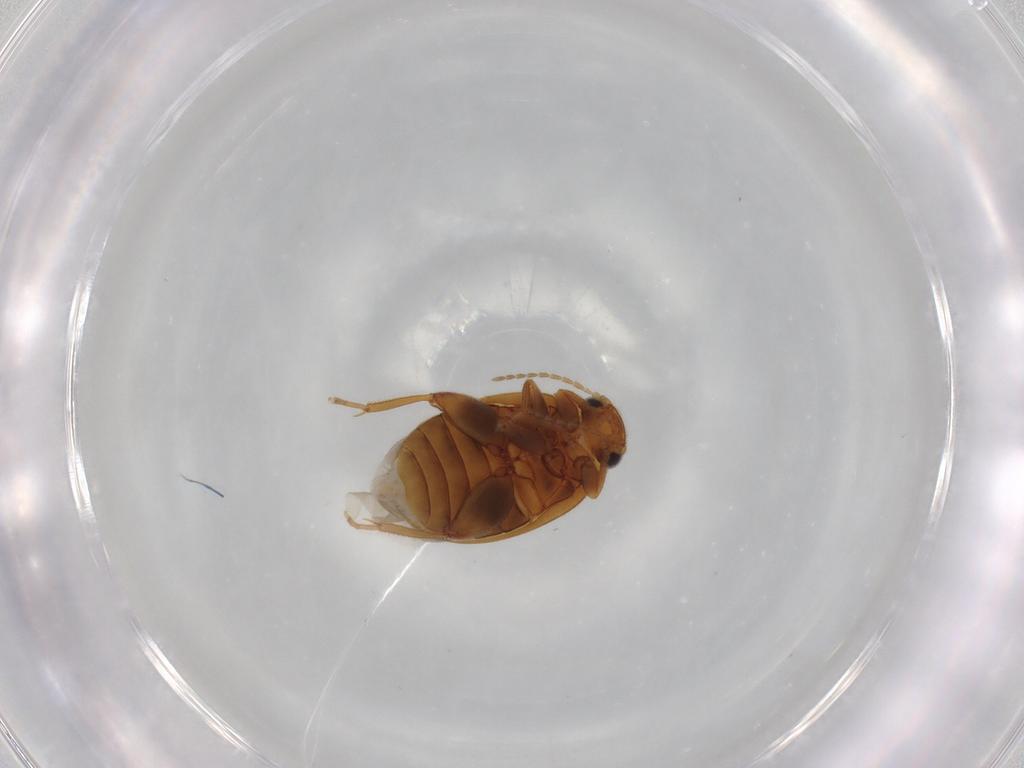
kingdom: Animalia
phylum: Arthropoda
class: Insecta
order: Coleoptera
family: Scirtidae
